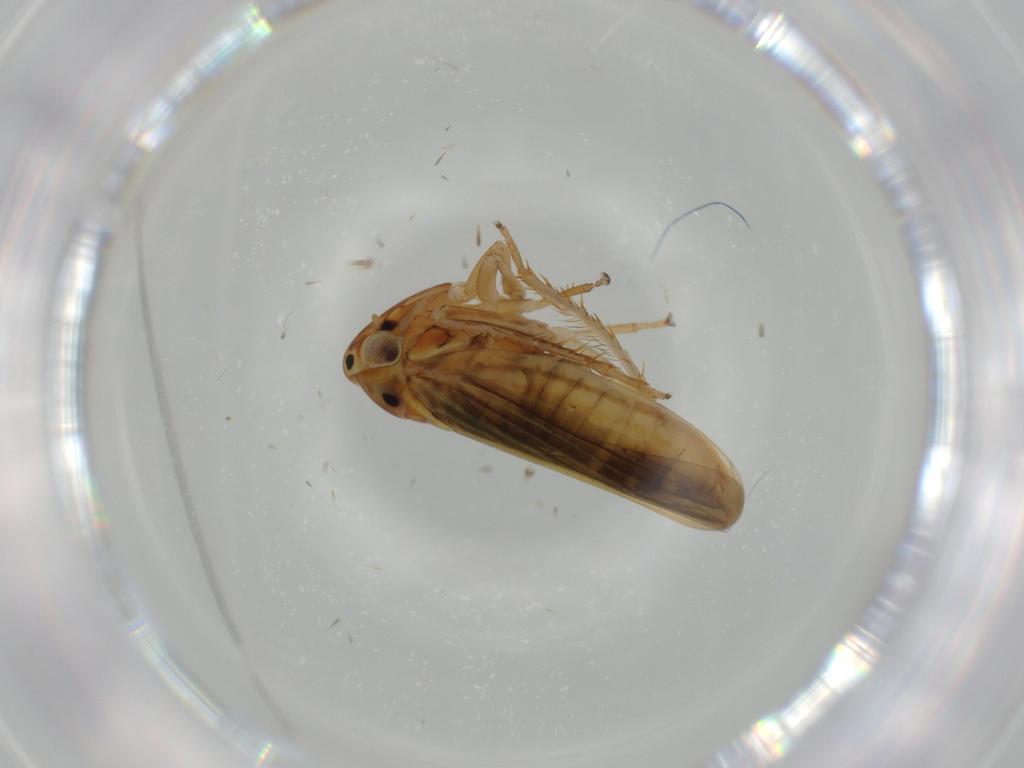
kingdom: Animalia
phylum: Arthropoda
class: Insecta
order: Hemiptera
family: Cicadellidae
